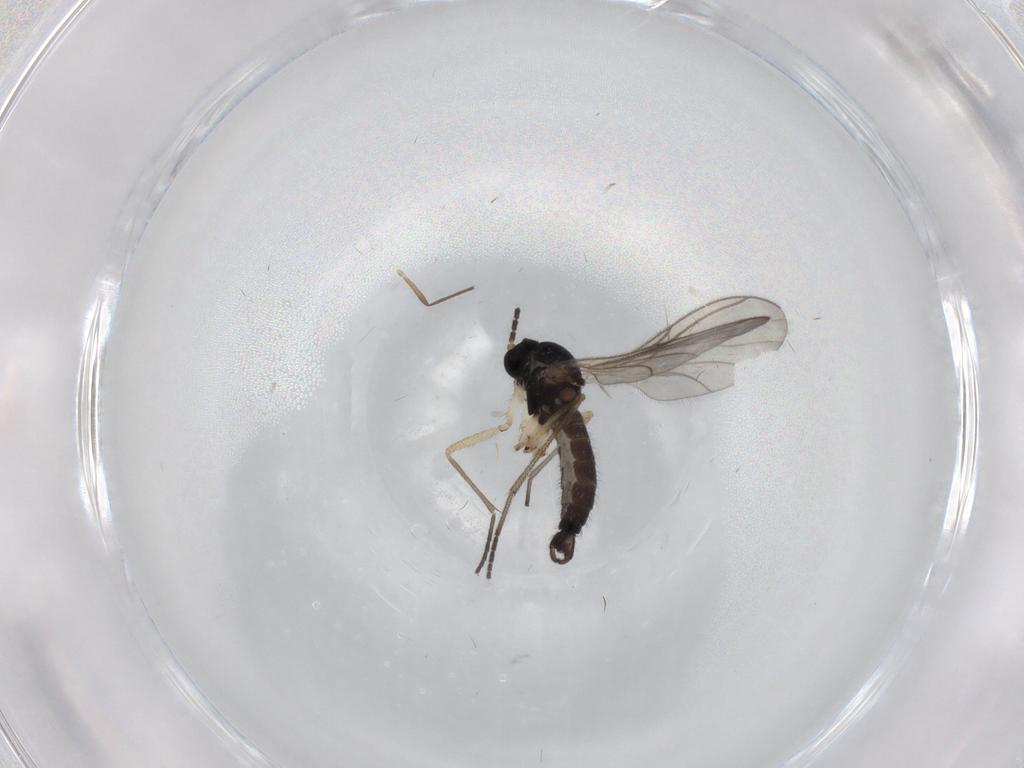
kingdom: Animalia
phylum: Arthropoda
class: Insecta
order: Diptera
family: Sciaridae
